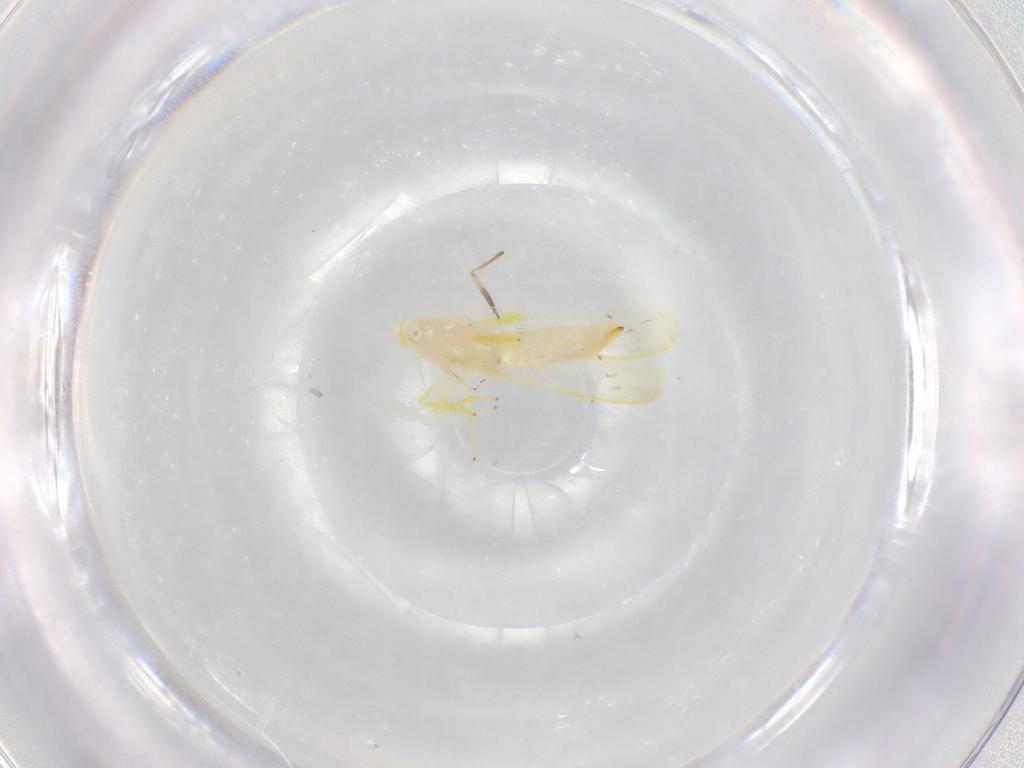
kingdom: Animalia
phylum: Arthropoda
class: Insecta
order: Hemiptera
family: Cicadellidae
